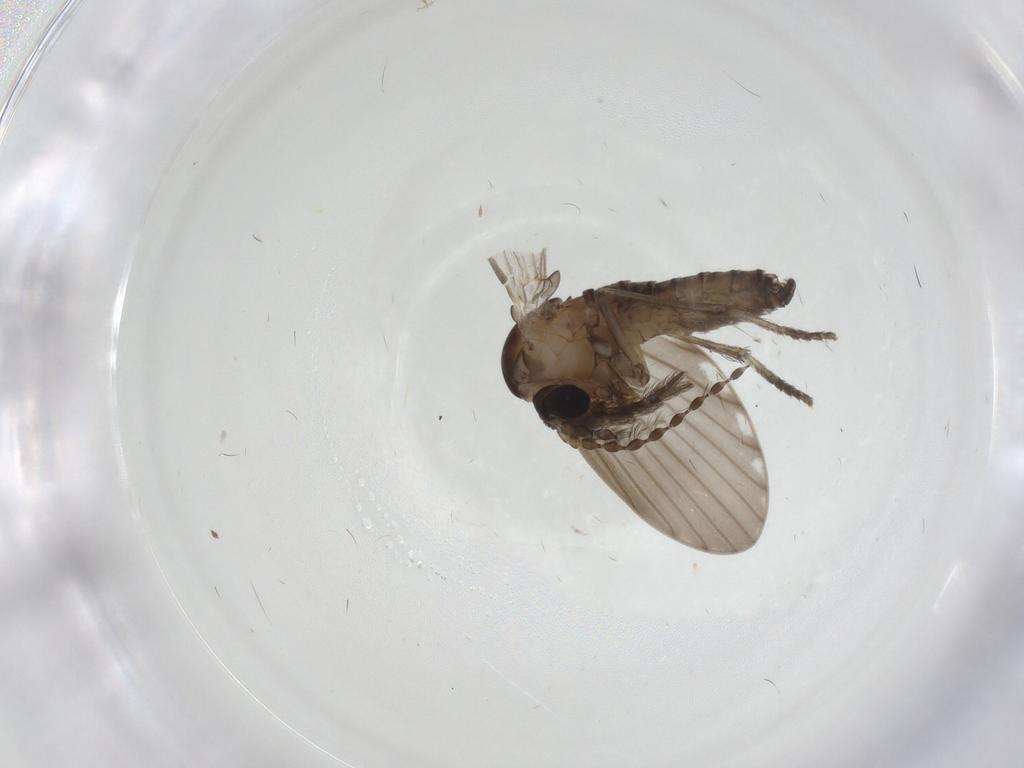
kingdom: Animalia
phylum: Arthropoda
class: Insecta
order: Diptera
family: Psychodidae
